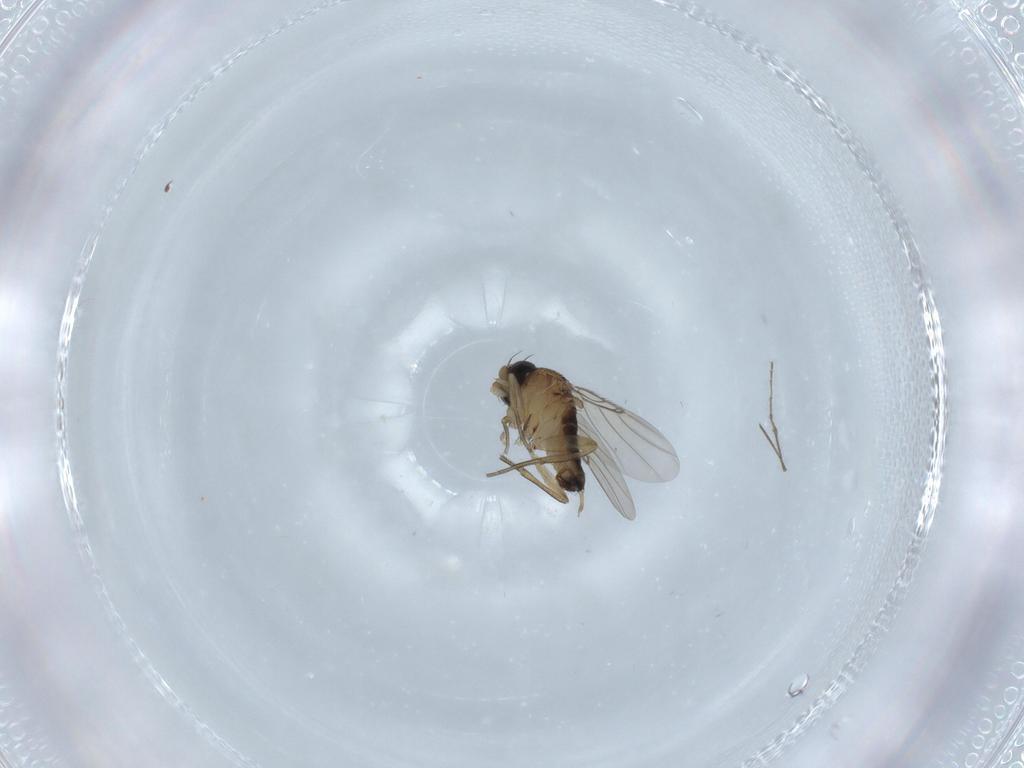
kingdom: Animalia
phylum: Arthropoda
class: Insecta
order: Diptera
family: Phoridae
